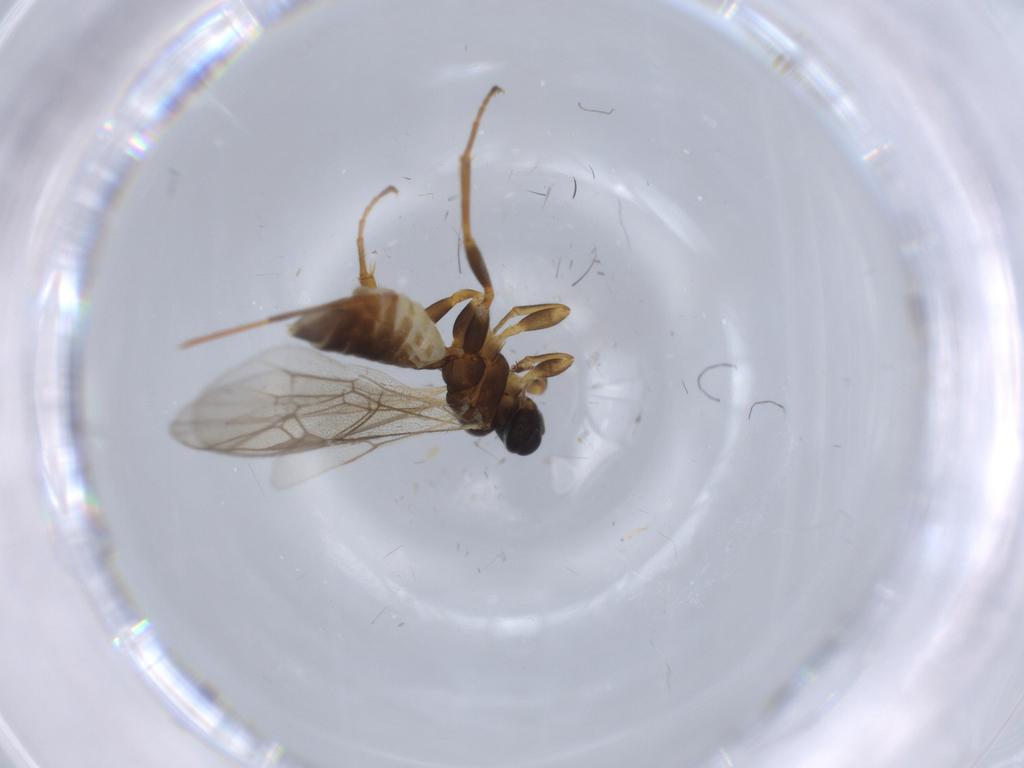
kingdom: Animalia
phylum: Arthropoda
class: Insecta
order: Hymenoptera
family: Ichneumonidae
